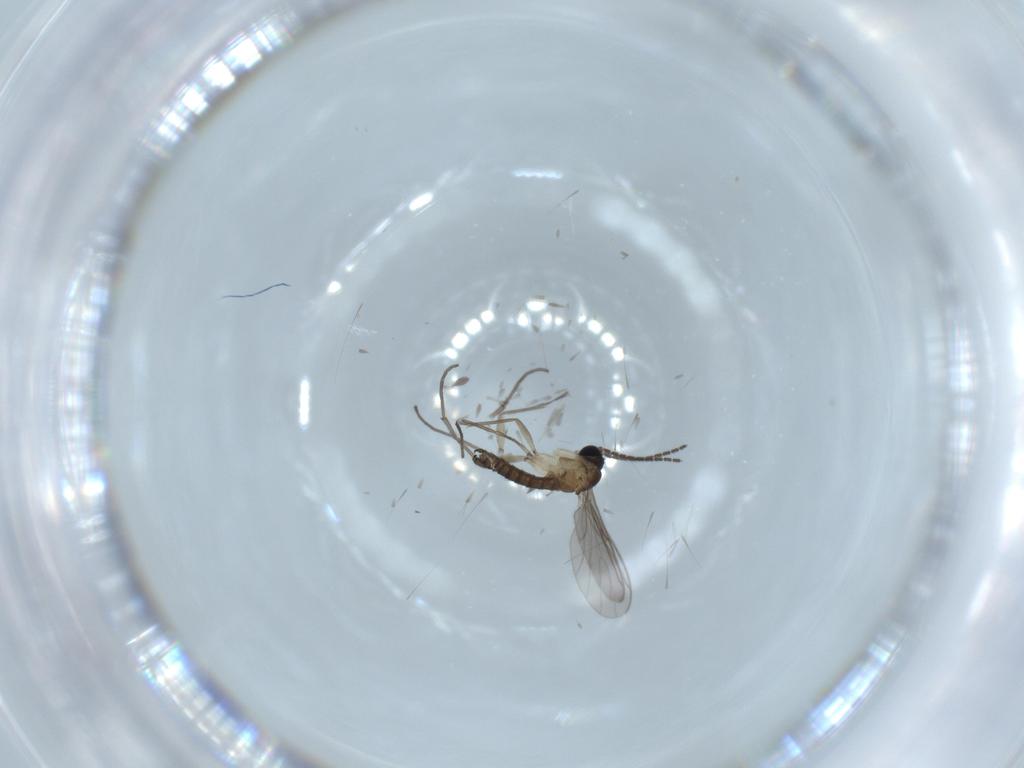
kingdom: Animalia
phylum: Arthropoda
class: Insecta
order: Diptera
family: Sciaridae
